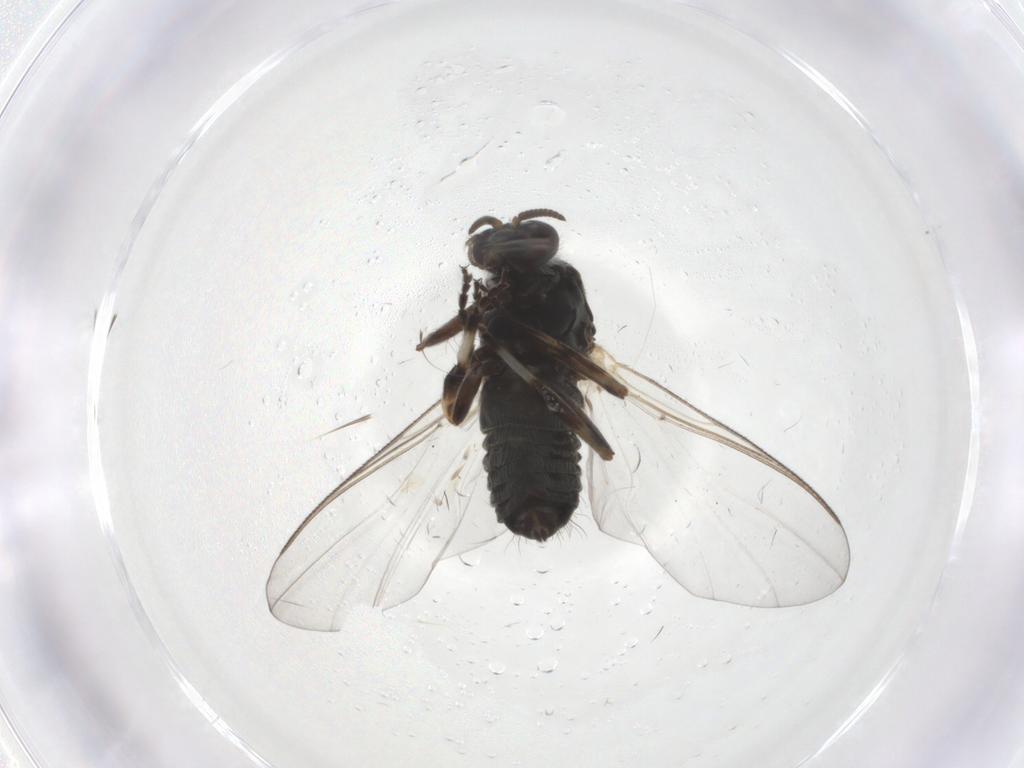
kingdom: Animalia
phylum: Arthropoda
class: Insecta
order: Diptera
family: Simuliidae
